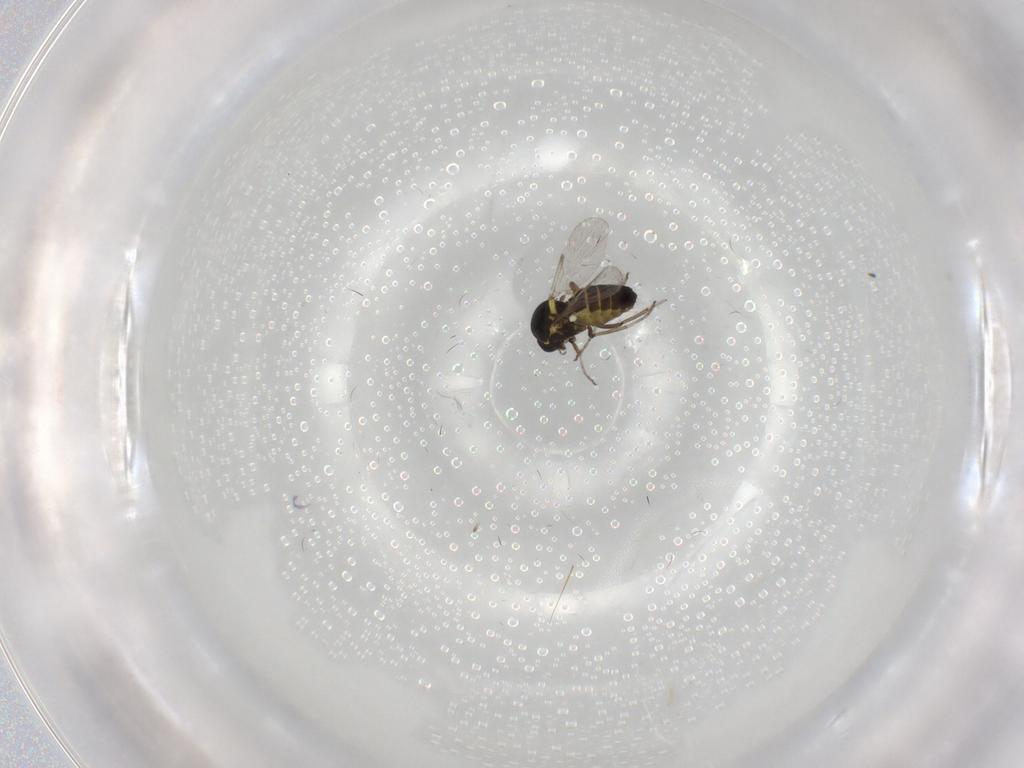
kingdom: Animalia
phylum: Arthropoda
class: Insecta
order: Diptera
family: Ceratopogonidae
